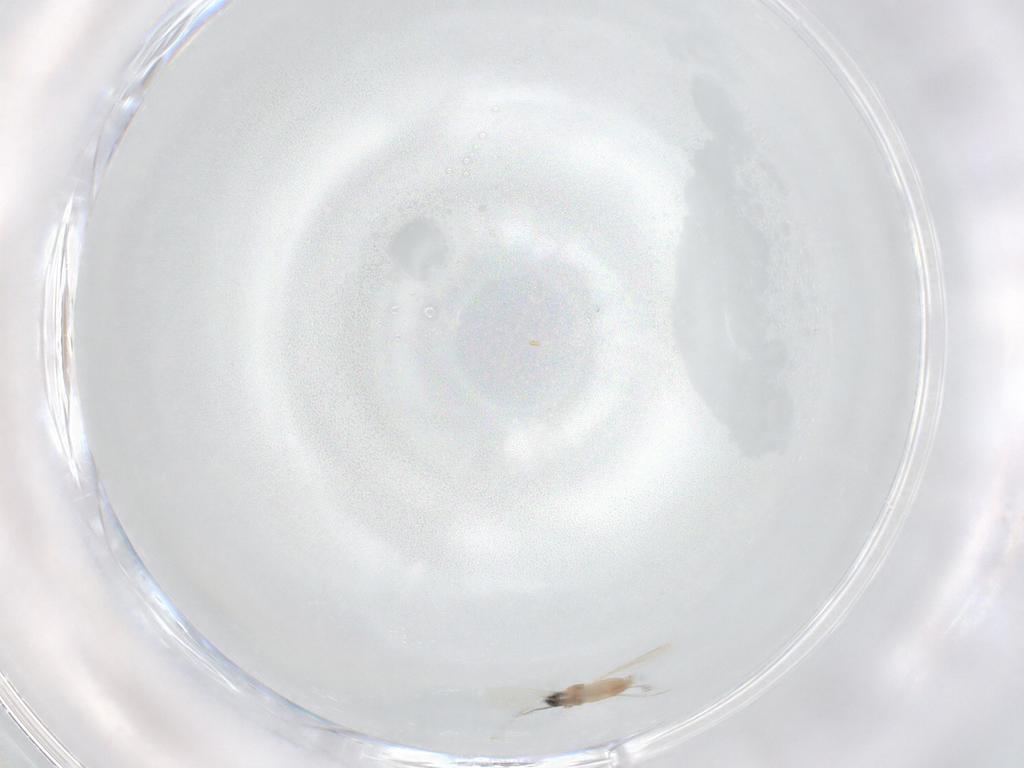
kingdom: Animalia
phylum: Arthropoda
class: Insecta
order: Diptera
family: Cecidomyiidae
